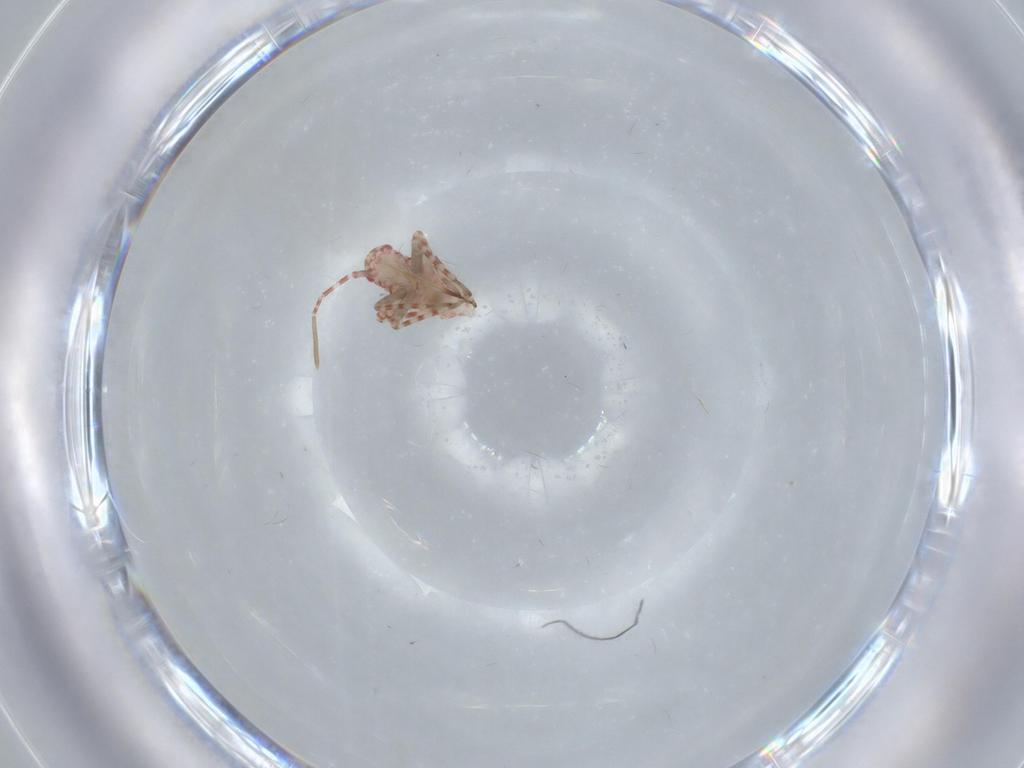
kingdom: Animalia
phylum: Arthropoda
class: Insecta
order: Hemiptera
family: Miridae
